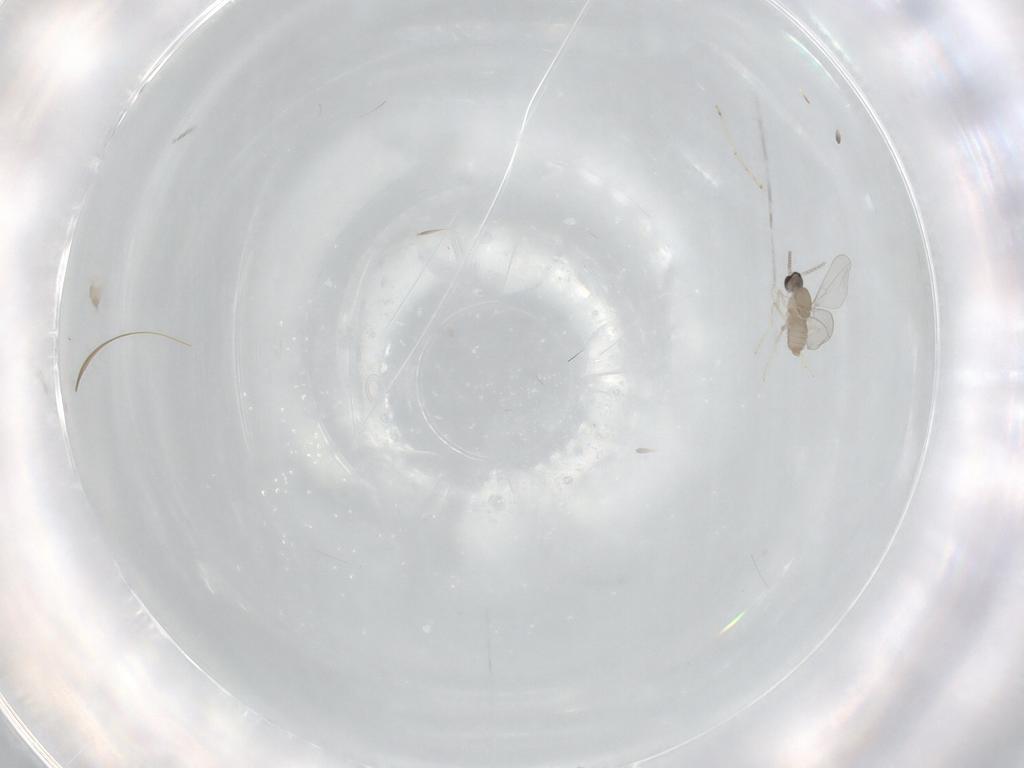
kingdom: Animalia
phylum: Arthropoda
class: Insecta
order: Diptera
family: Cecidomyiidae
